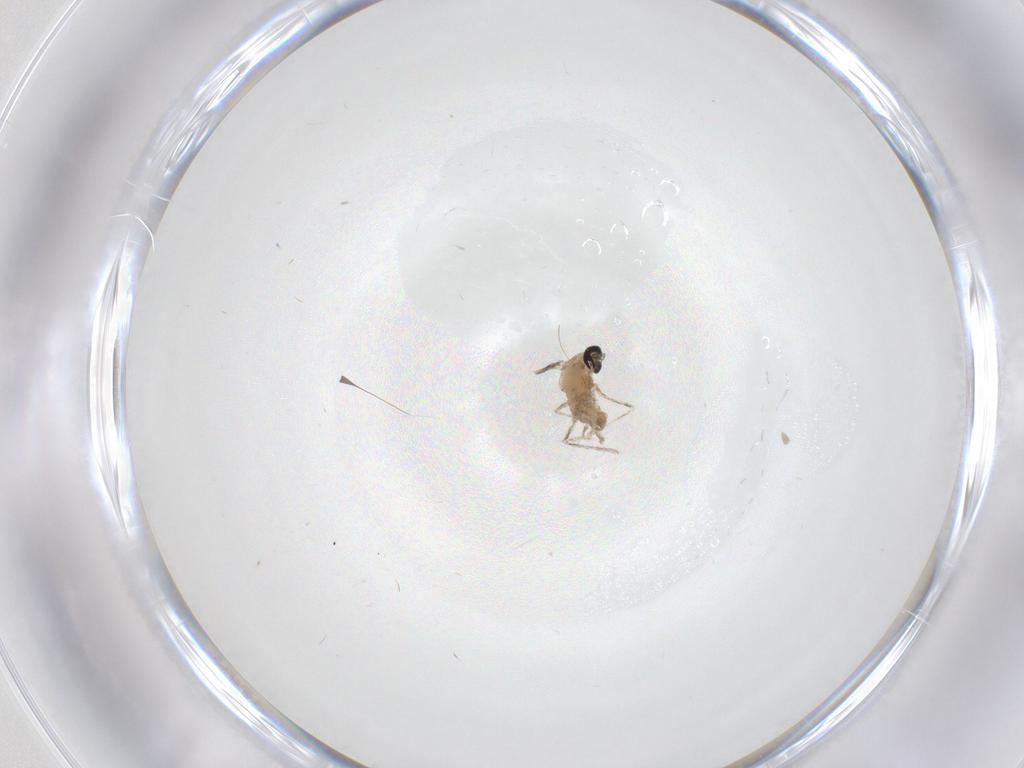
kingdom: Animalia
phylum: Arthropoda
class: Insecta
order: Diptera
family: Cecidomyiidae
